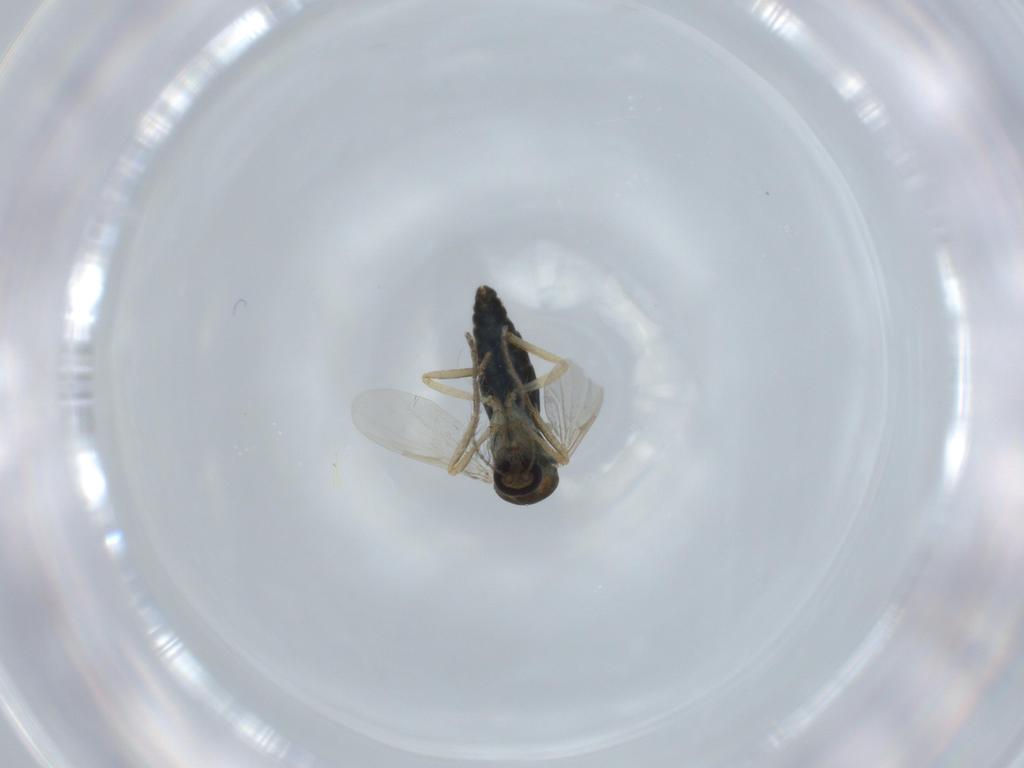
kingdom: Animalia
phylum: Arthropoda
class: Insecta
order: Diptera
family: Ceratopogonidae
